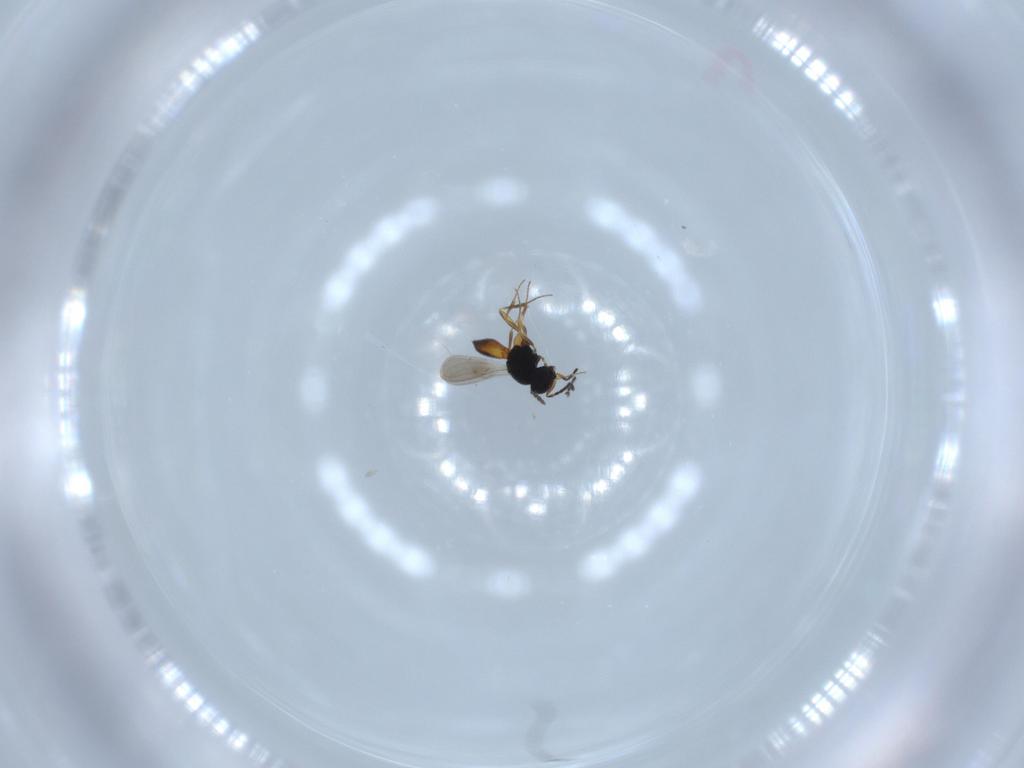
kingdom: Animalia
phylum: Arthropoda
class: Insecta
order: Hymenoptera
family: Scelionidae
